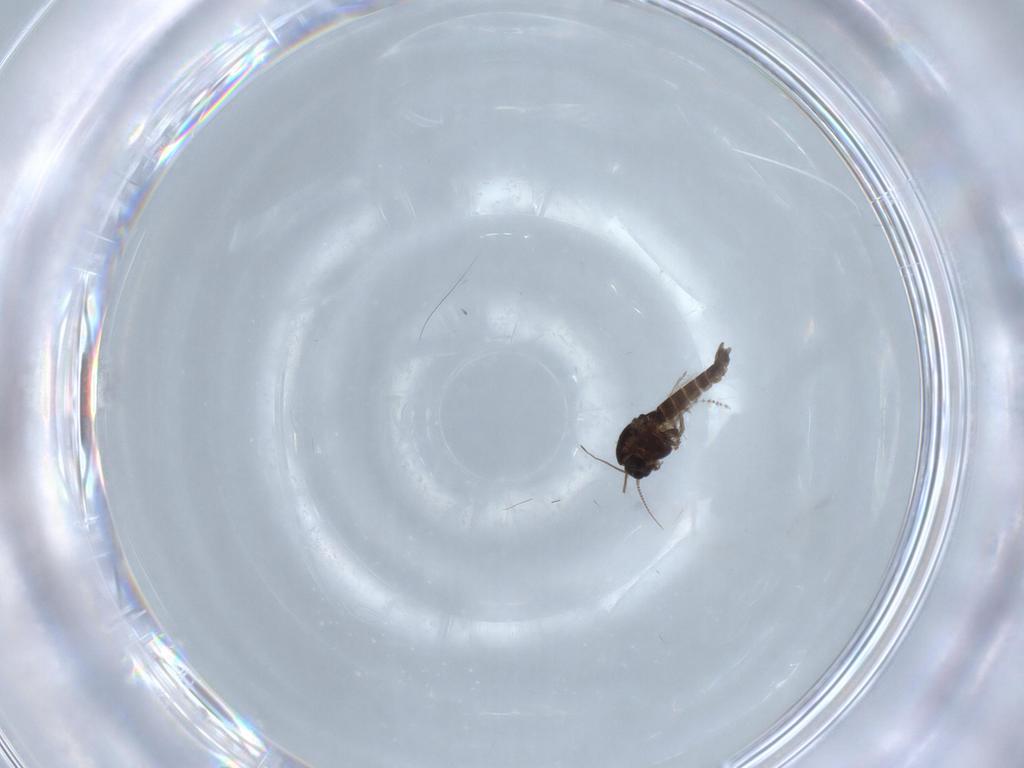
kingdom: Animalia
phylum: Arthropoda
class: Insecta
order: Diptera
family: Chironomidae
